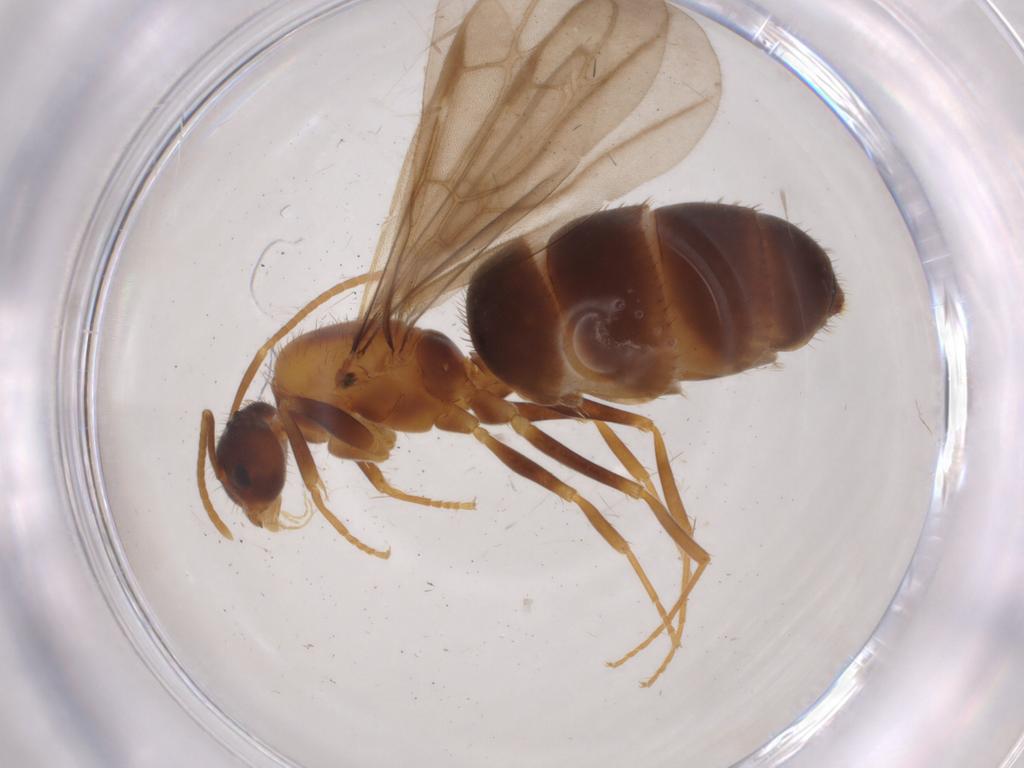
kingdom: Animalia
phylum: Arthropoda
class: Insecta
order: Hymenoptera
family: Formicidae
